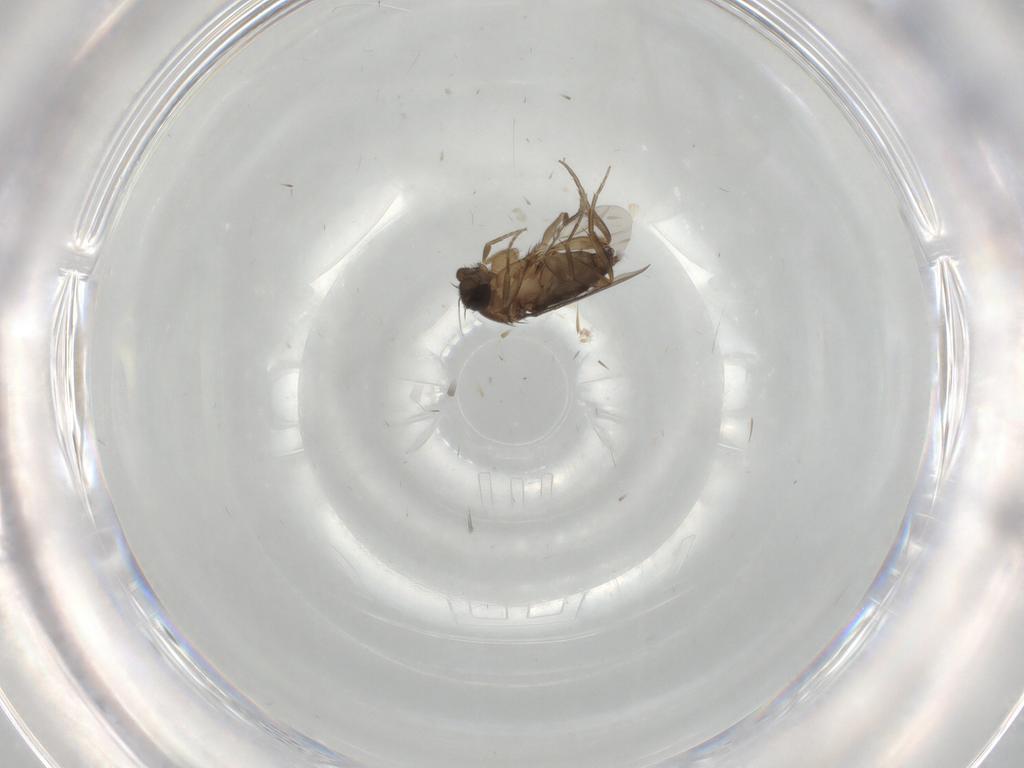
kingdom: Animalia
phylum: Arthropoda
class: Insecta
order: Diptera
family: Phoridae
